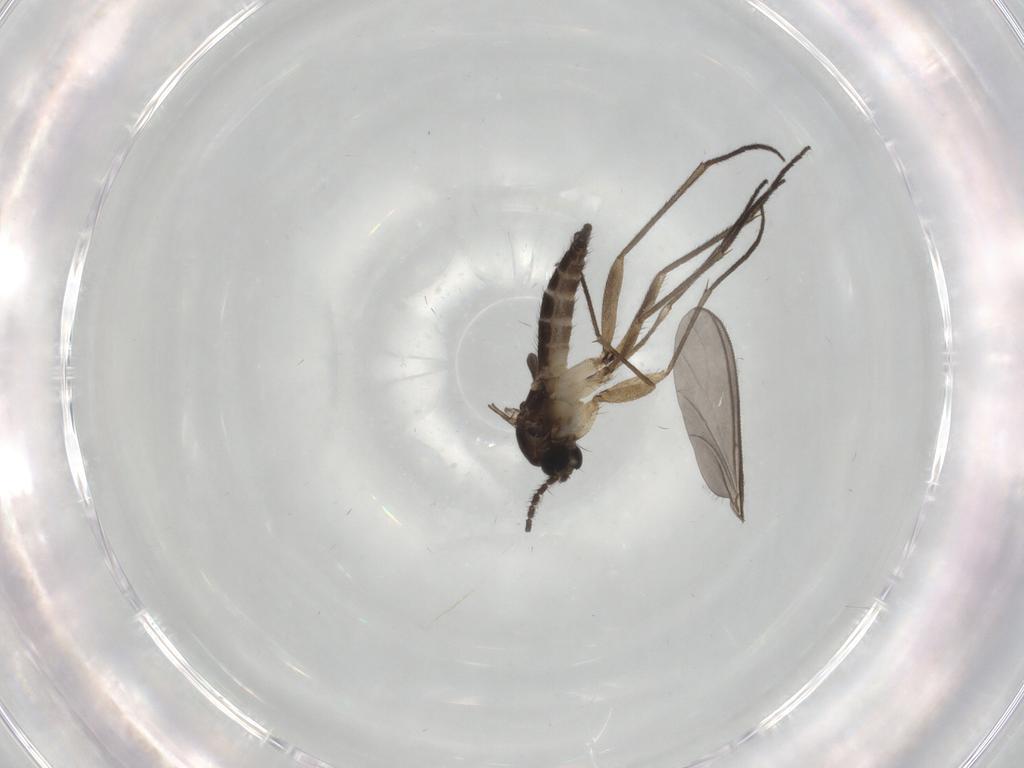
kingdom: Animalia
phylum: Arthropoda
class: Insecta
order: Diptera
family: Sciaridae
